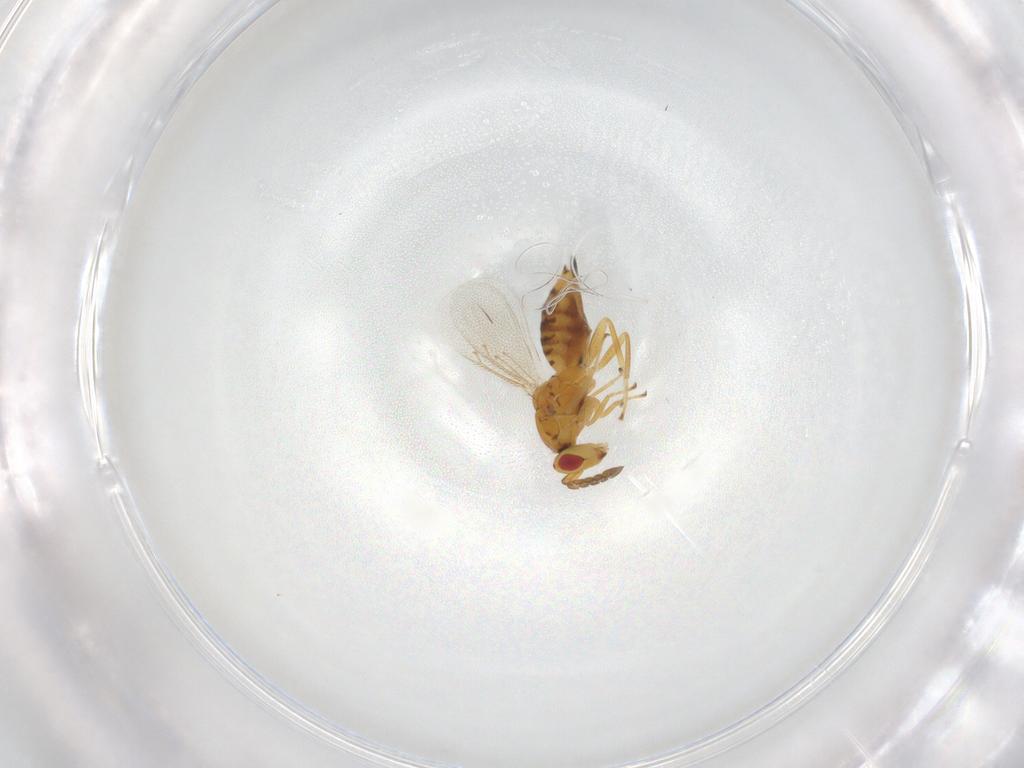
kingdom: Animalia
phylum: Arthropoda
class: Insecta
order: Hymenoptera
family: Eulophidae
